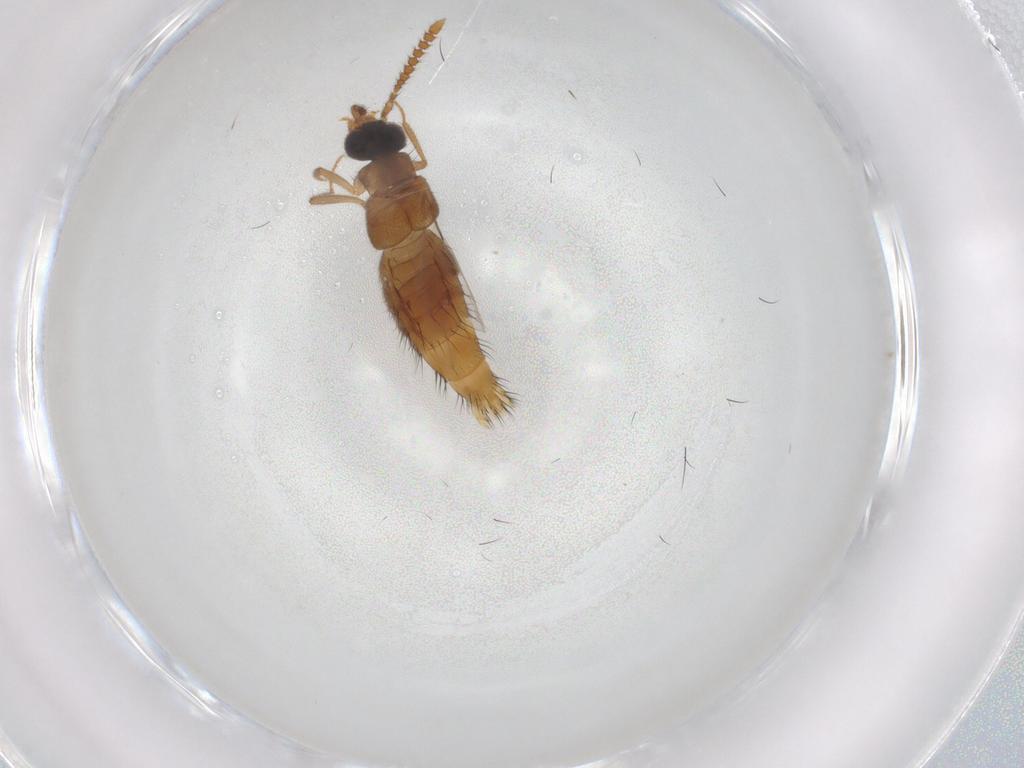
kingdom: Animalia
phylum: Arthropoda
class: Insecta
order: Coleoptera
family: Staphylinidae
